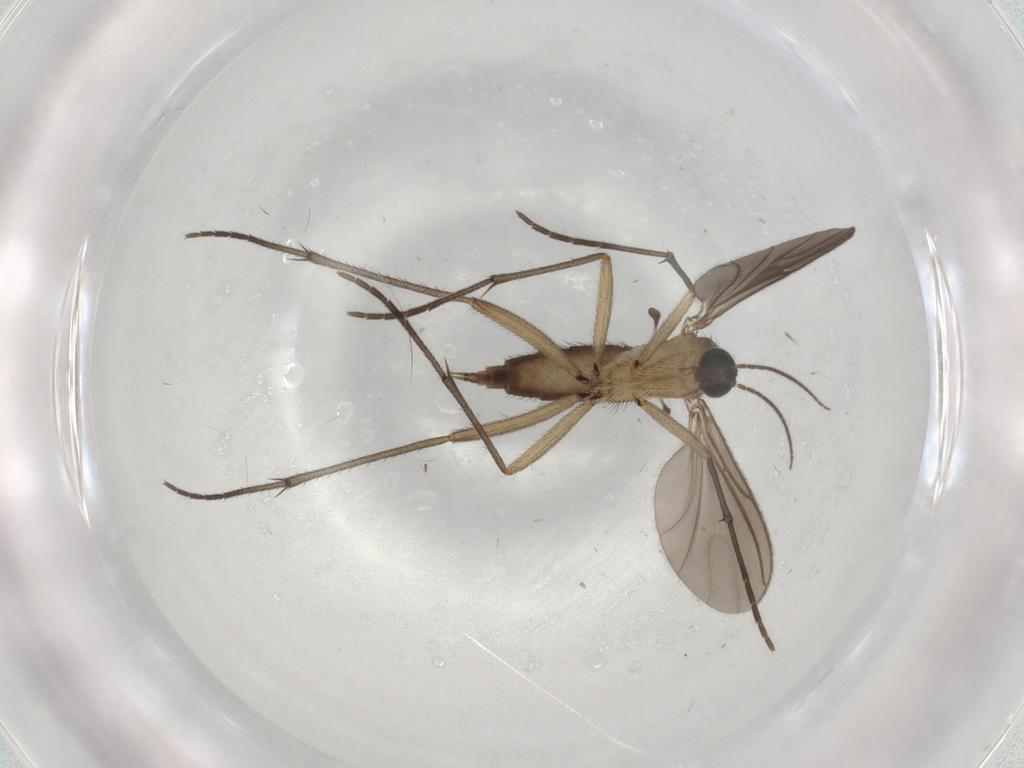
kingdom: Animalia
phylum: Arthropoda
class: Insecta
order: Diptera
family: Sciaridae
